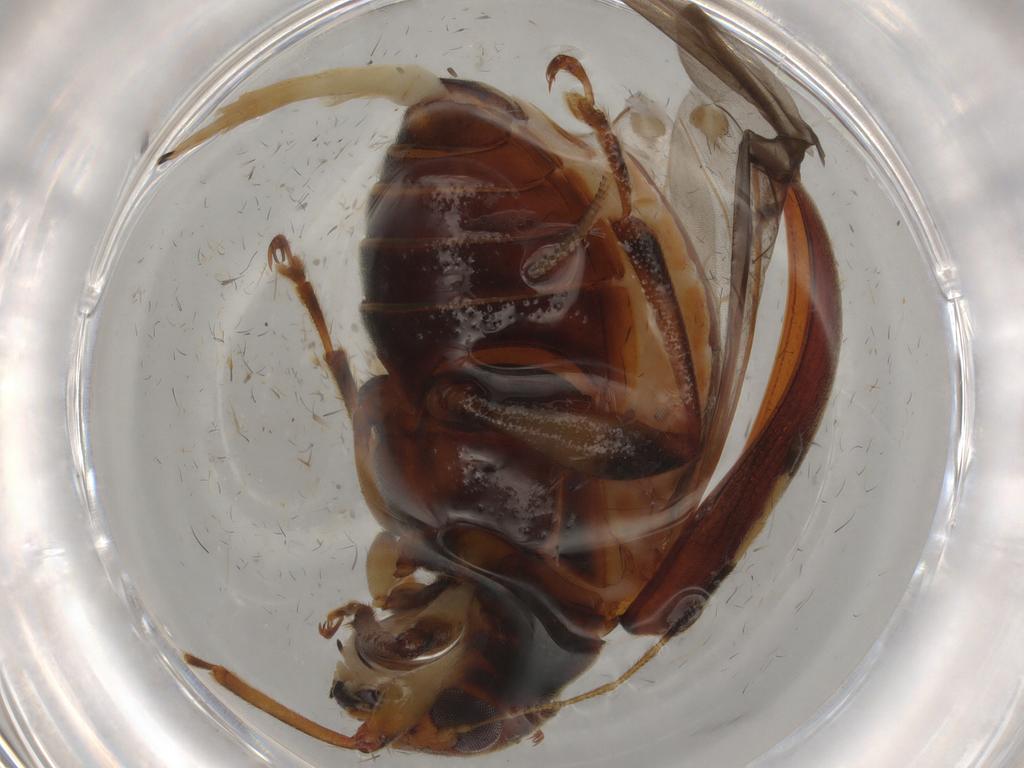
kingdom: Animalia
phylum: Arthropoda
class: Insecta
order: Coleoptera
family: Chrysomelidae
